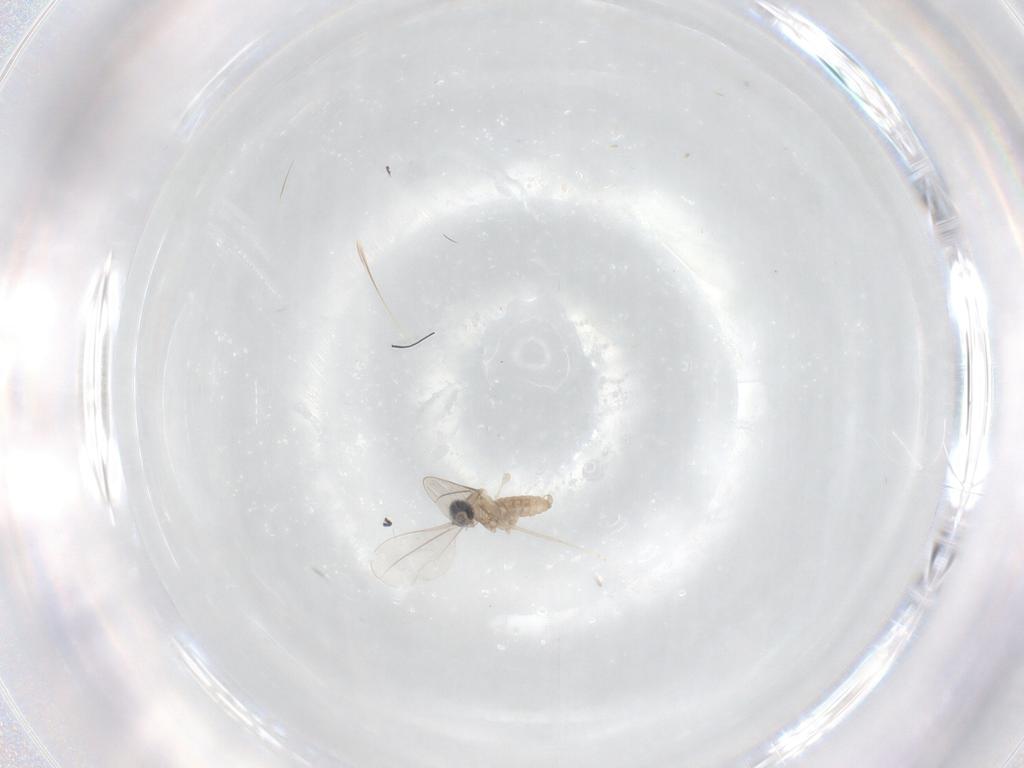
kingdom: Animalia
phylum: Arthropoda
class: Insecta
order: Diptera
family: Cecidomyiidae
